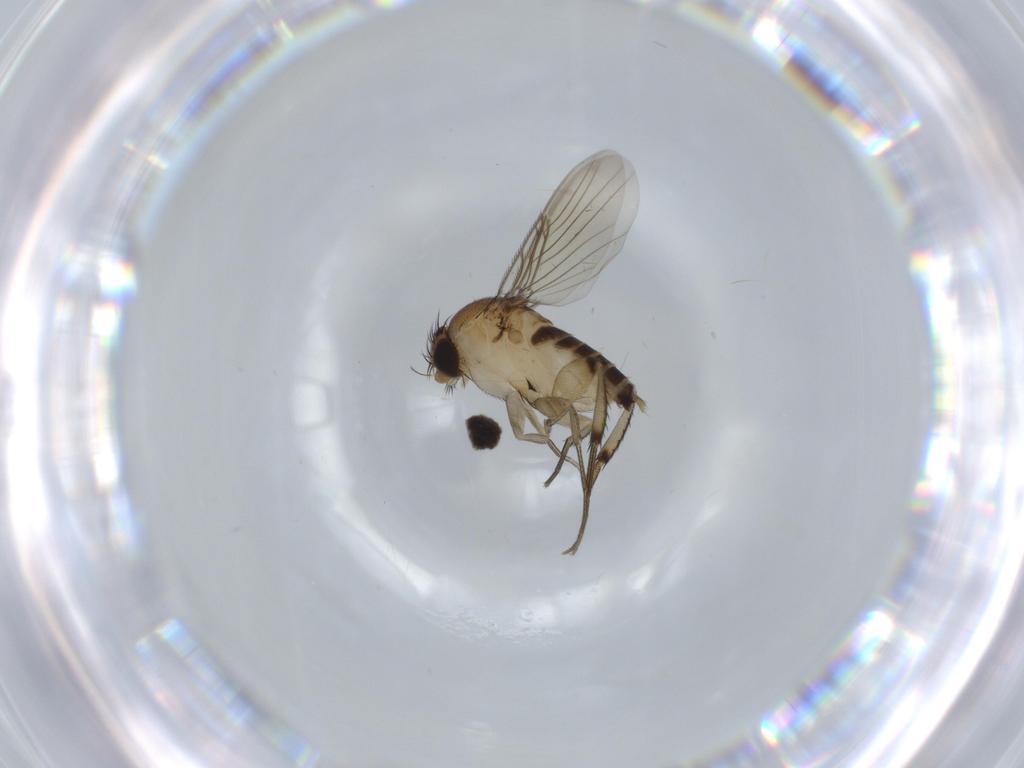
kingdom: Animalia
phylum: Arthropoda
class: Insecta
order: Diptera
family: Phoridae
